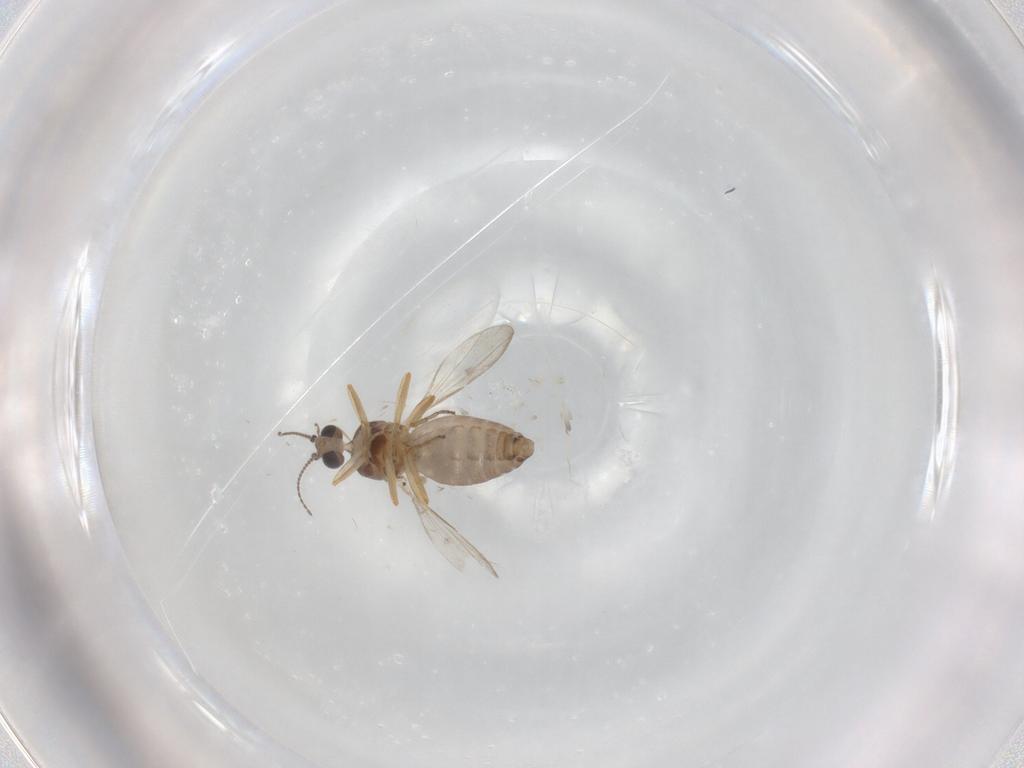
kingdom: Animalia
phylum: Arthropoda
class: Insecta
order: Diptera
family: Ceratopogonidae
